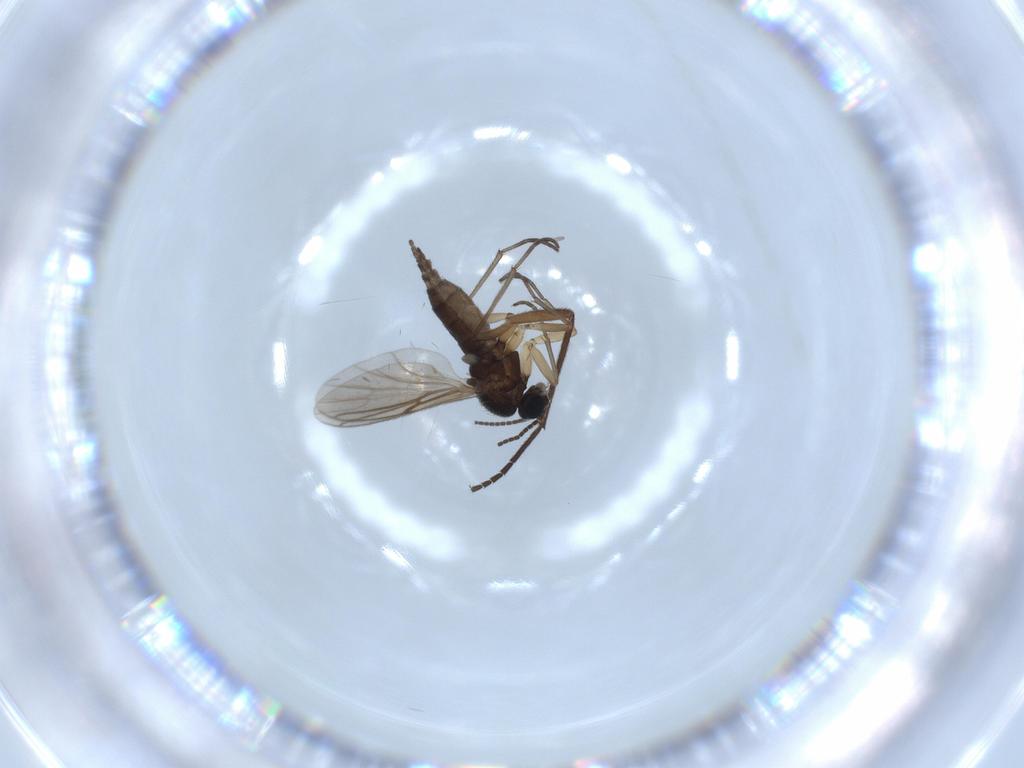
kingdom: Animalia
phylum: Arthropoda
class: Insecta
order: Diptera
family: Sciaridae
